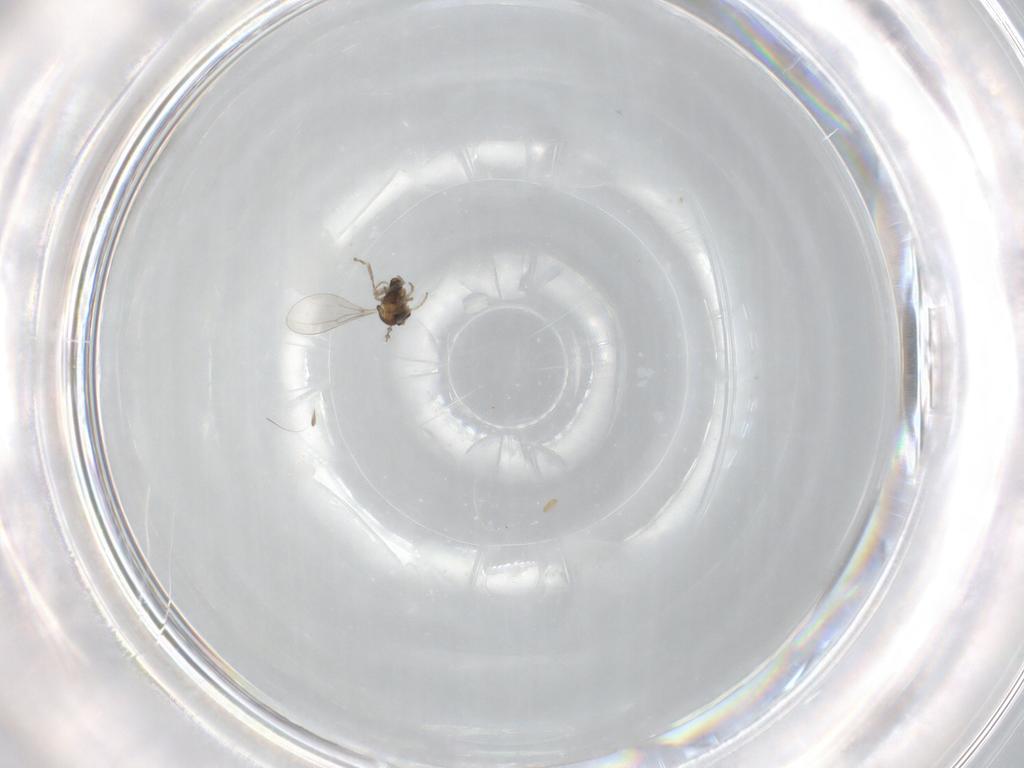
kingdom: Animalia
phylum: Arthropoda
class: Insecta
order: Diptera
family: Cecidomyiidae
